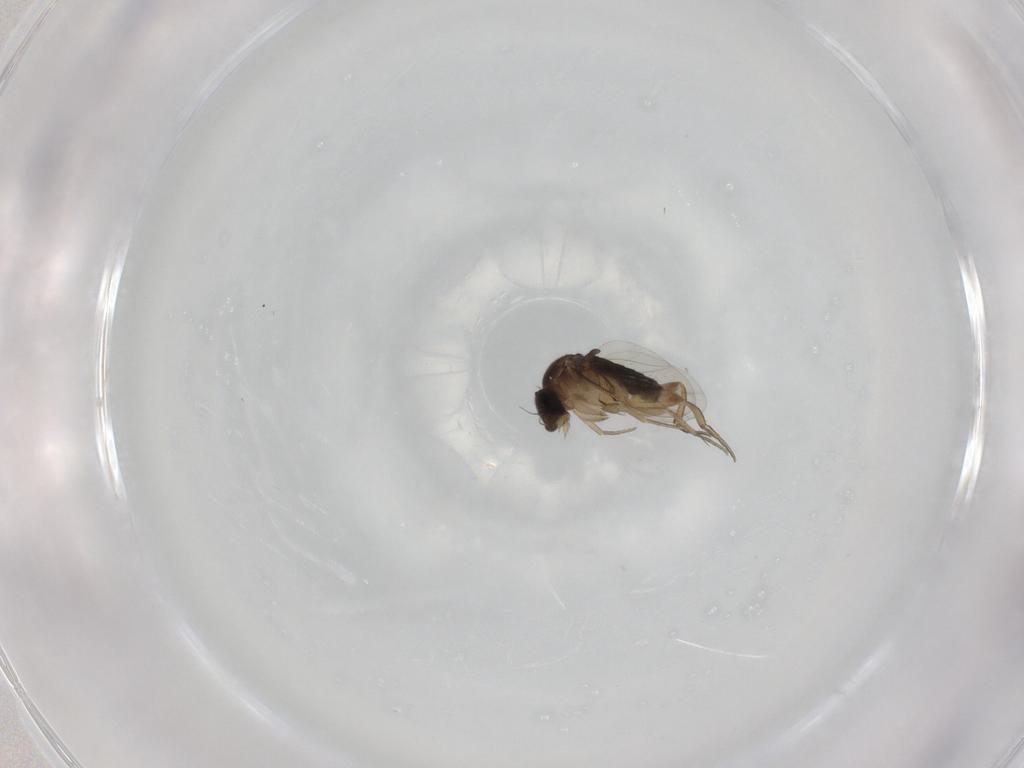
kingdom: Animalia
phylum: Arthropoda
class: Insecta
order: Diptera
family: Phoridae
